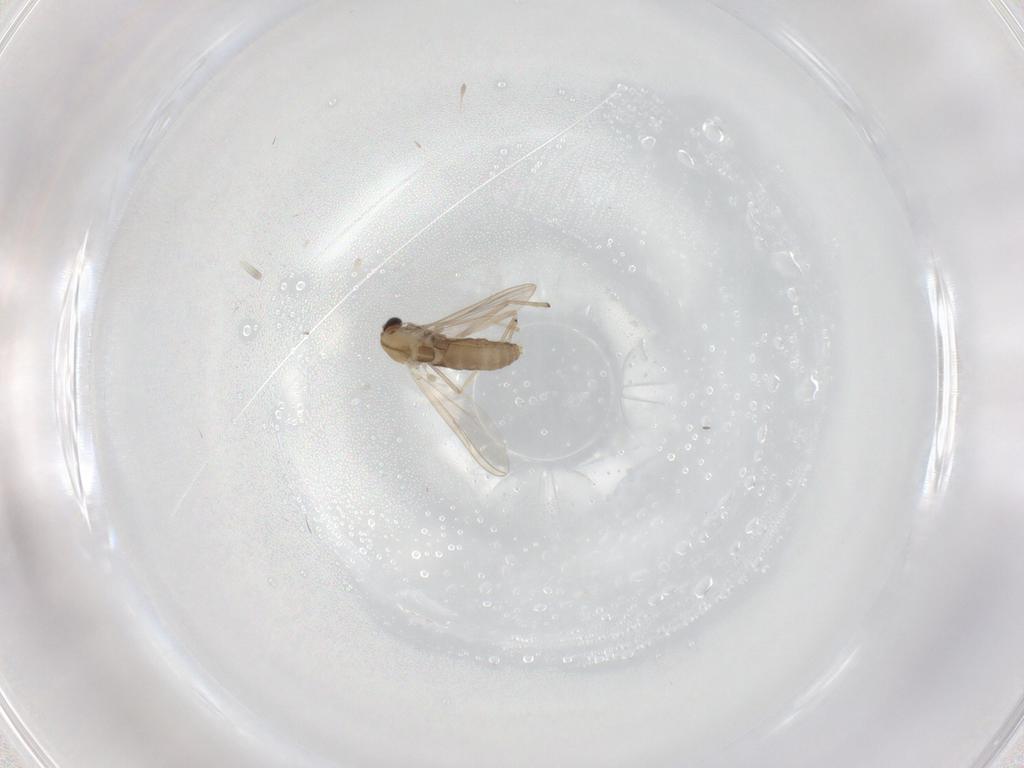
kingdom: Animalia
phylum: Arthropoda
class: Insecta
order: Diptera
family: Chironomidae
